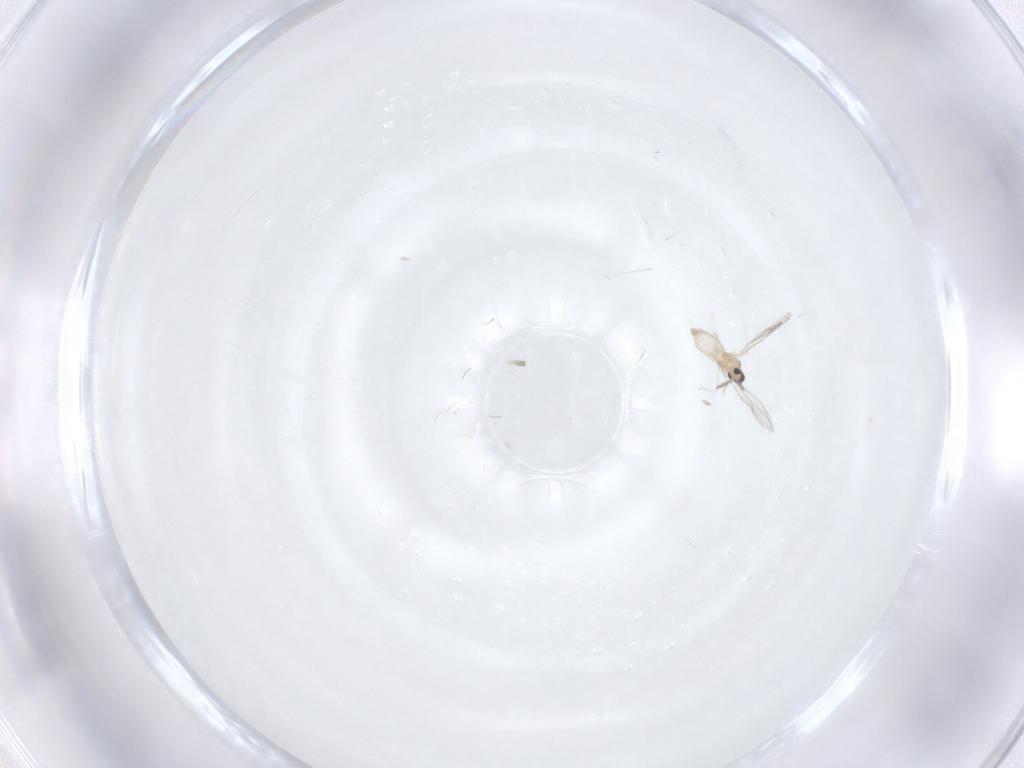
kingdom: Animalia
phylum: Arthropoda
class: Insecta
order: Diptera
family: Cecidomyiidae
